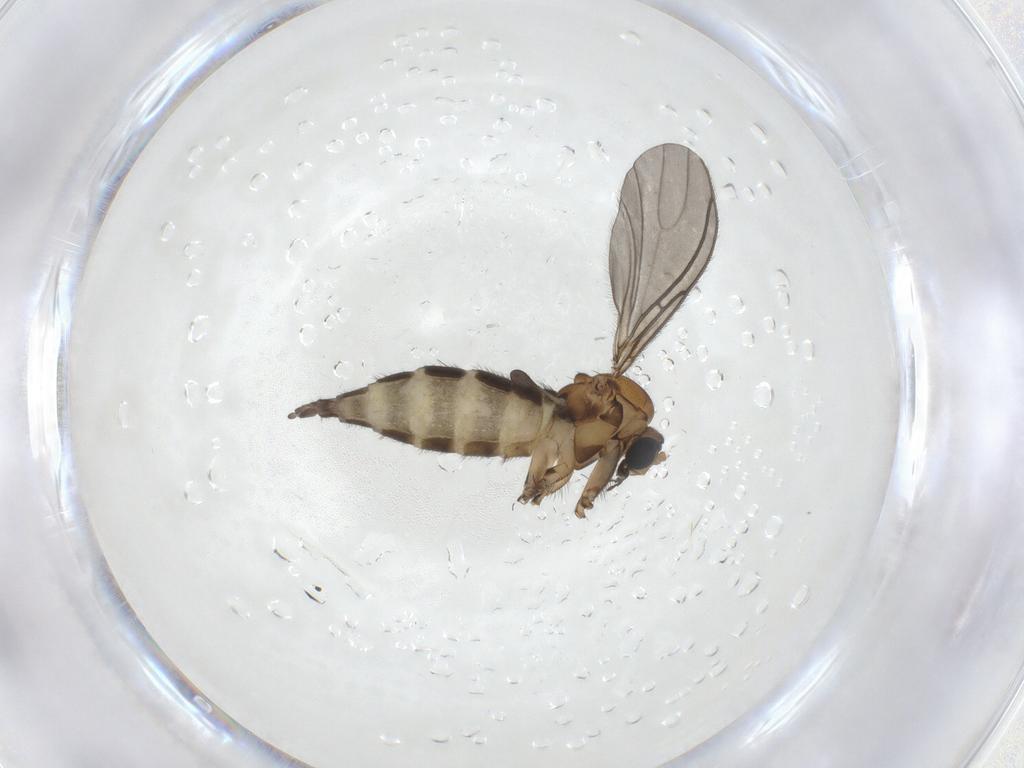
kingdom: Animalia
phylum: Arthropoda
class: Insecta
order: Diptera
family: Sciaridae
